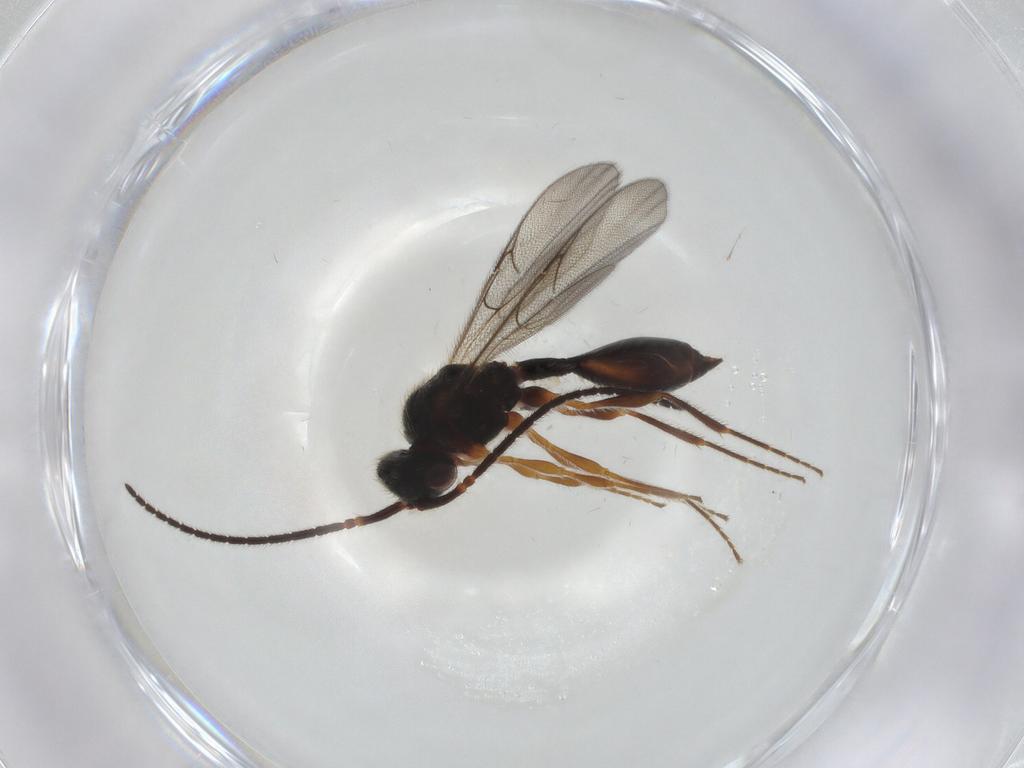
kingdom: Animalia
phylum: Arthropoda
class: Insecta
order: Hymenoptera
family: Diapriidae
